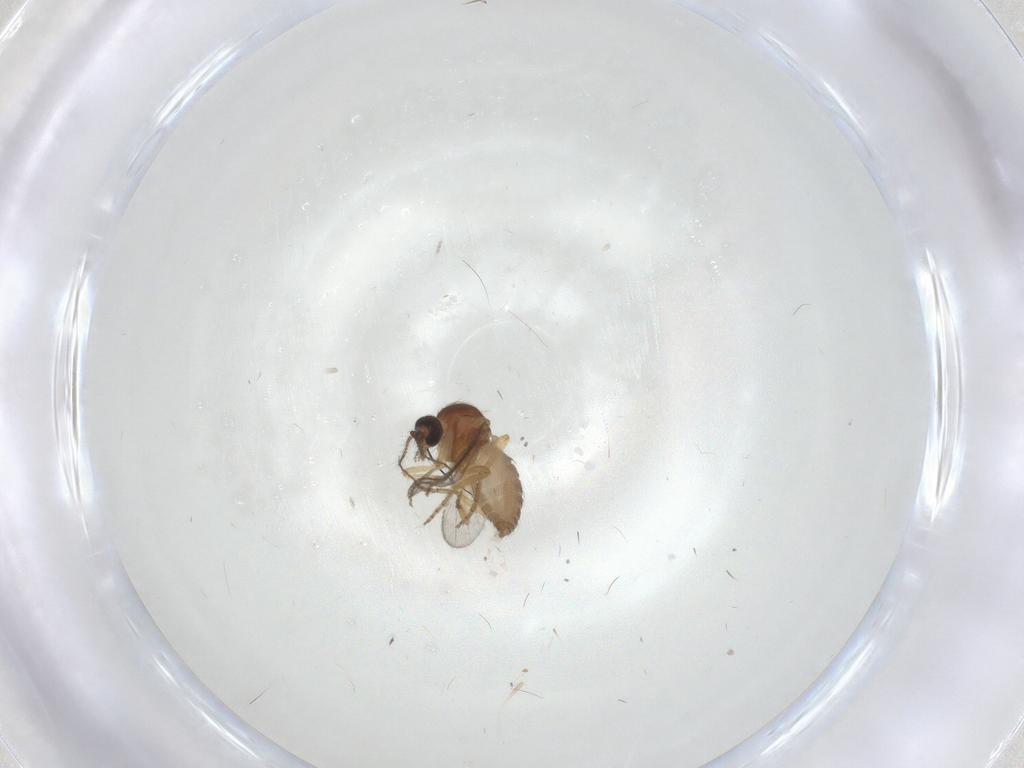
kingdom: Animalia
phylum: Arthropoda
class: Insecta
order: Diptera
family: Ceratopogonidae
